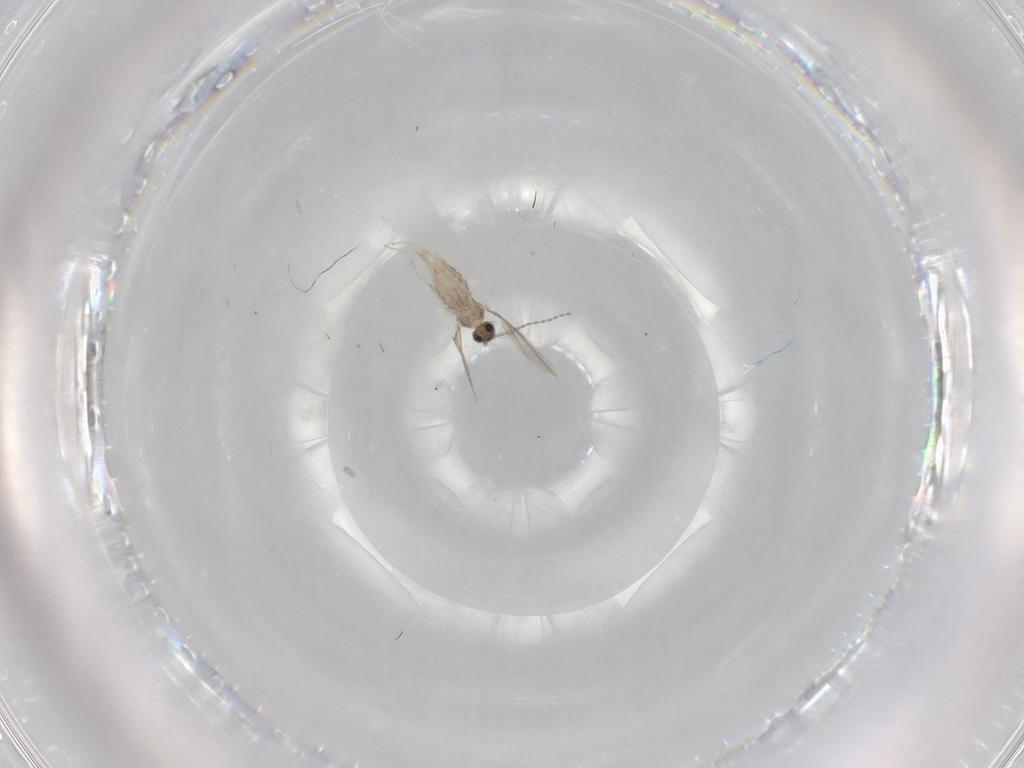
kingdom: Animalia
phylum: Arthropoda
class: Insecta
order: Diptera
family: Cecidomyiidae
